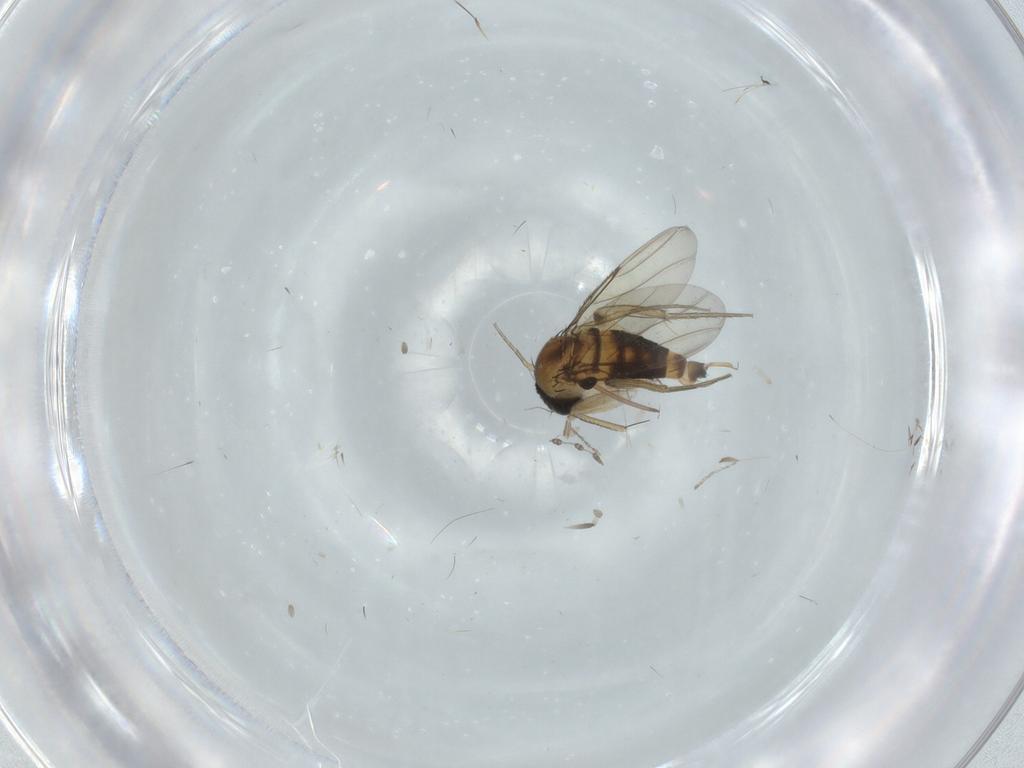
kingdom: Animalia
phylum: Arthropoda
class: Insecta
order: Diptera
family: Phoridae
